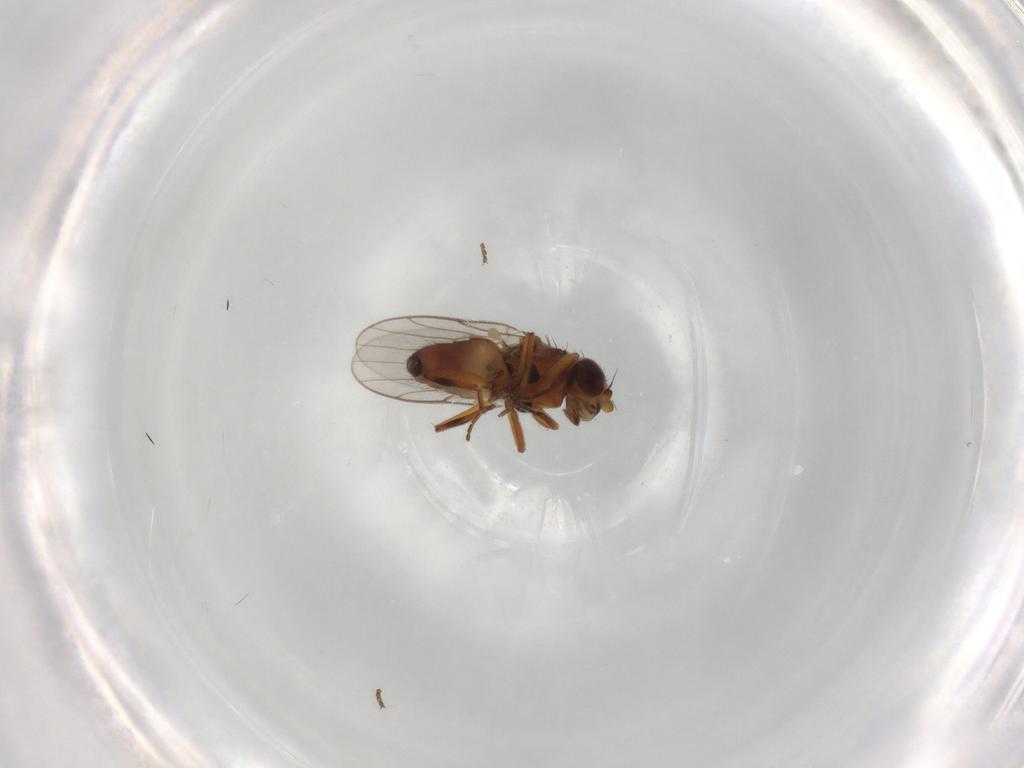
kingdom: Animalia
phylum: Arthropoda
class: Insecta
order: Diptera
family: Chloropidae
